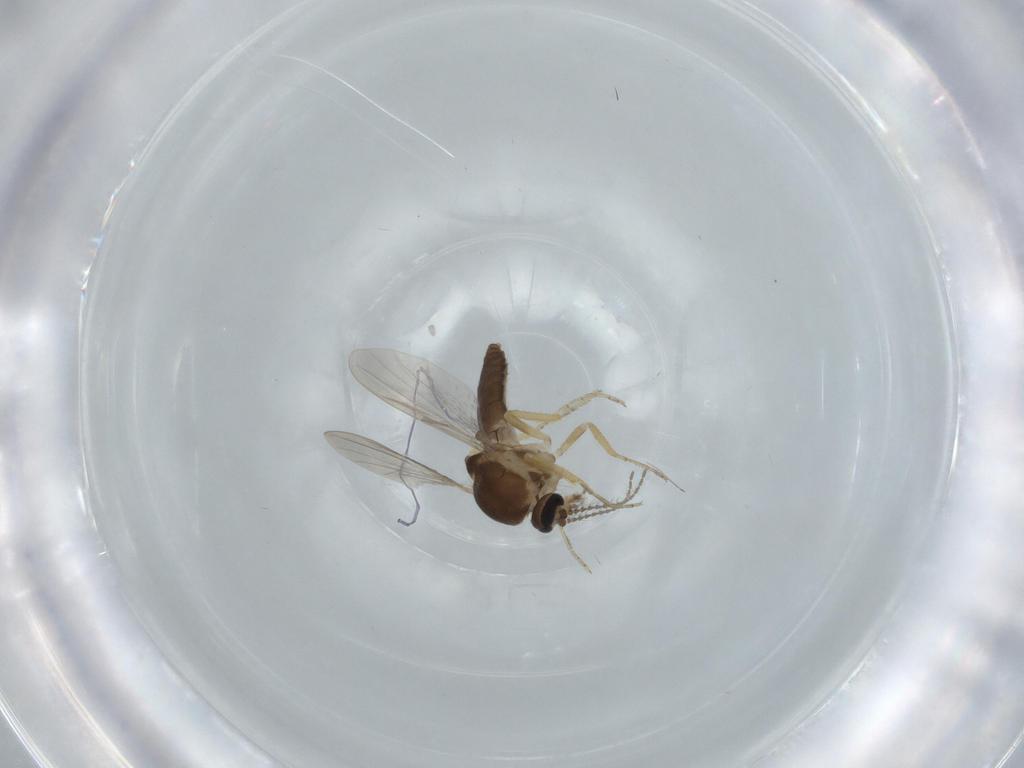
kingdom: Animalia
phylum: Arthropoda
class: Insecta
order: Diptera
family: Ceratopogonidae
